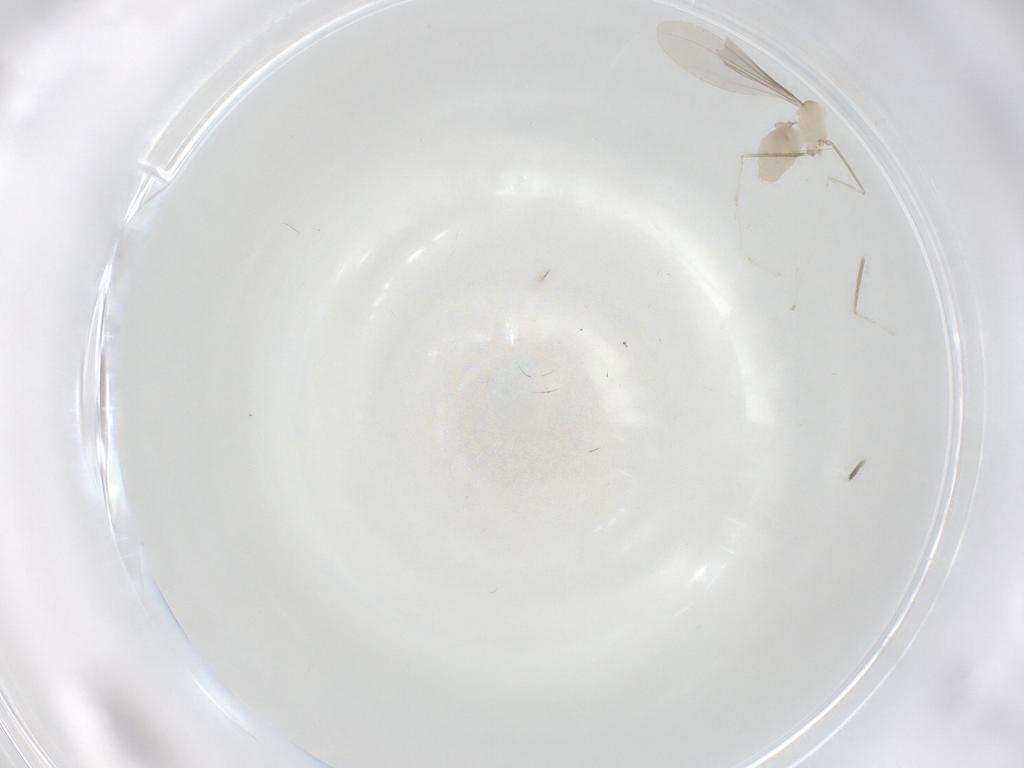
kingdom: Animalia
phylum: Arthropoda
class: Insecta
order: Diptera
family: Cecidomyiidae
